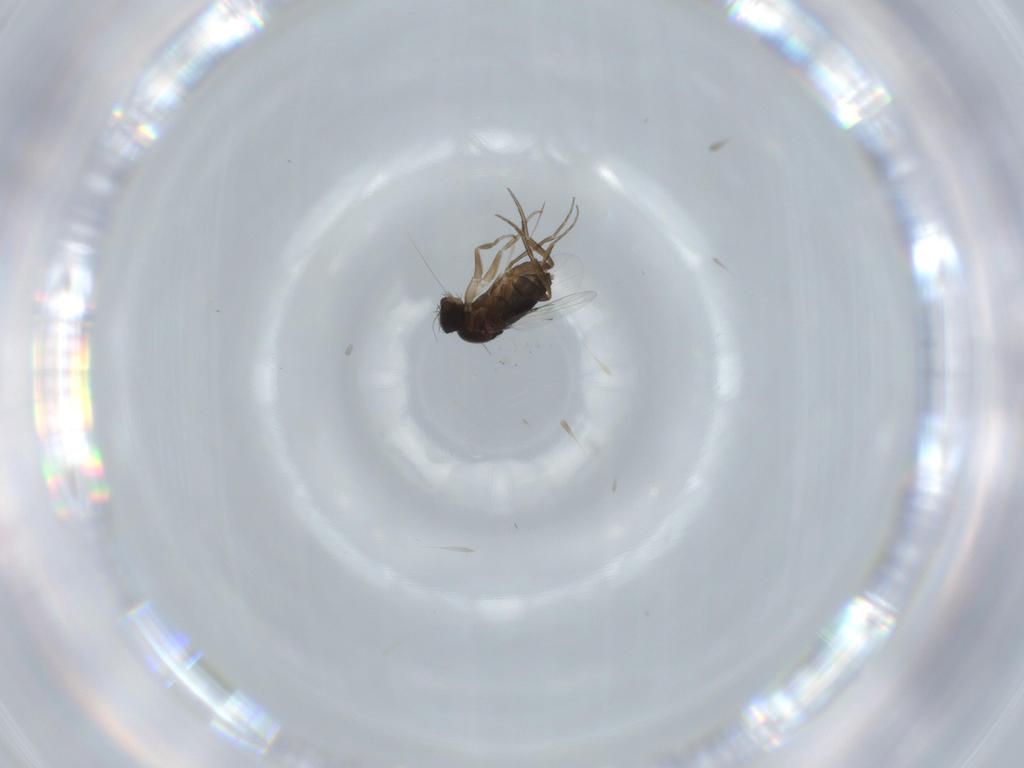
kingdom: Animalia
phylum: Arthropoda
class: Insecta
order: Diptera
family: Phoridae
